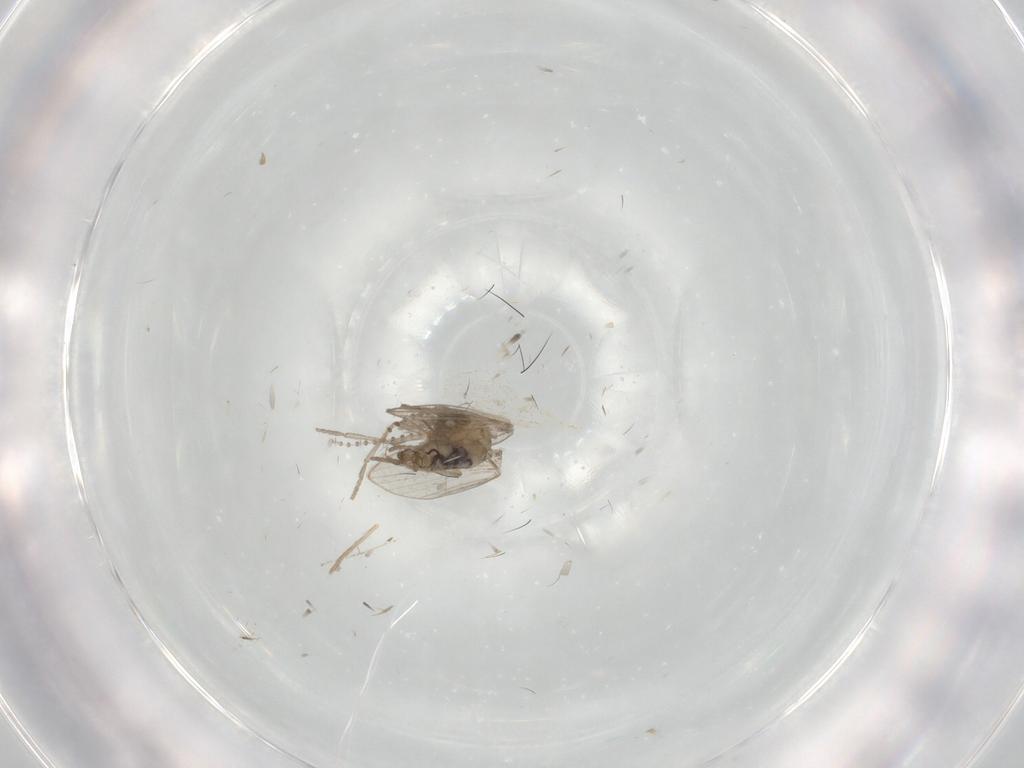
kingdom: Animalia
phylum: Arthropoda
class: Insecta
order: Diptera
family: Psychodidae
